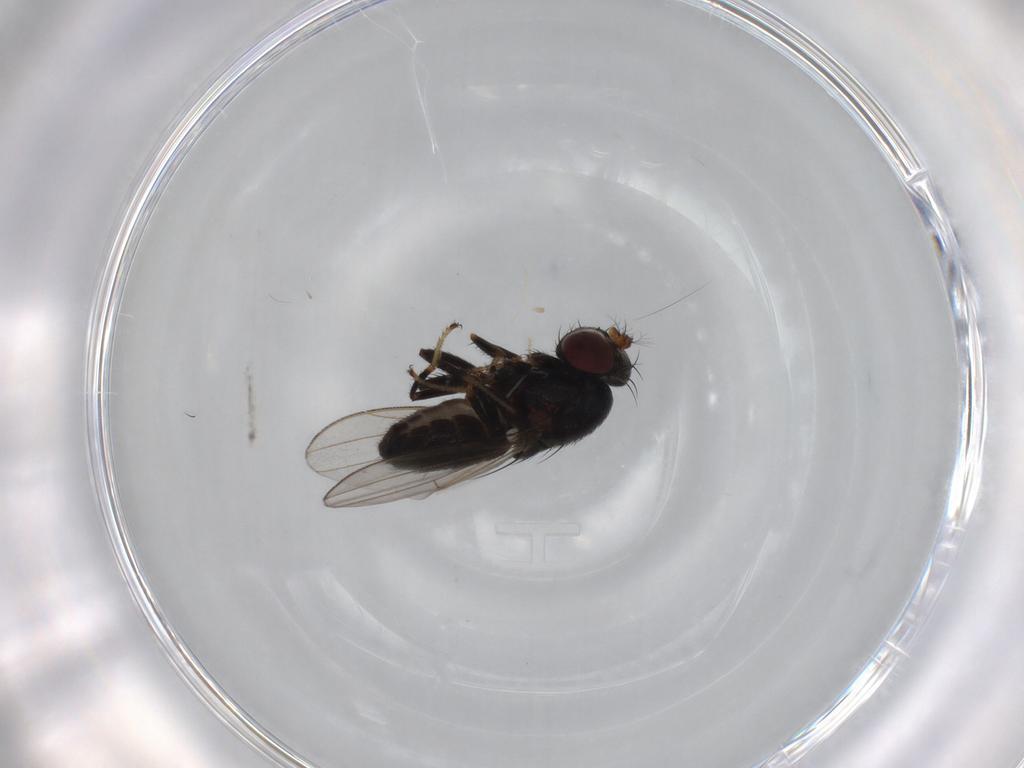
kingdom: Animalia
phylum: Arthropoda
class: Insecta
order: Diptera
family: Ephydridae
